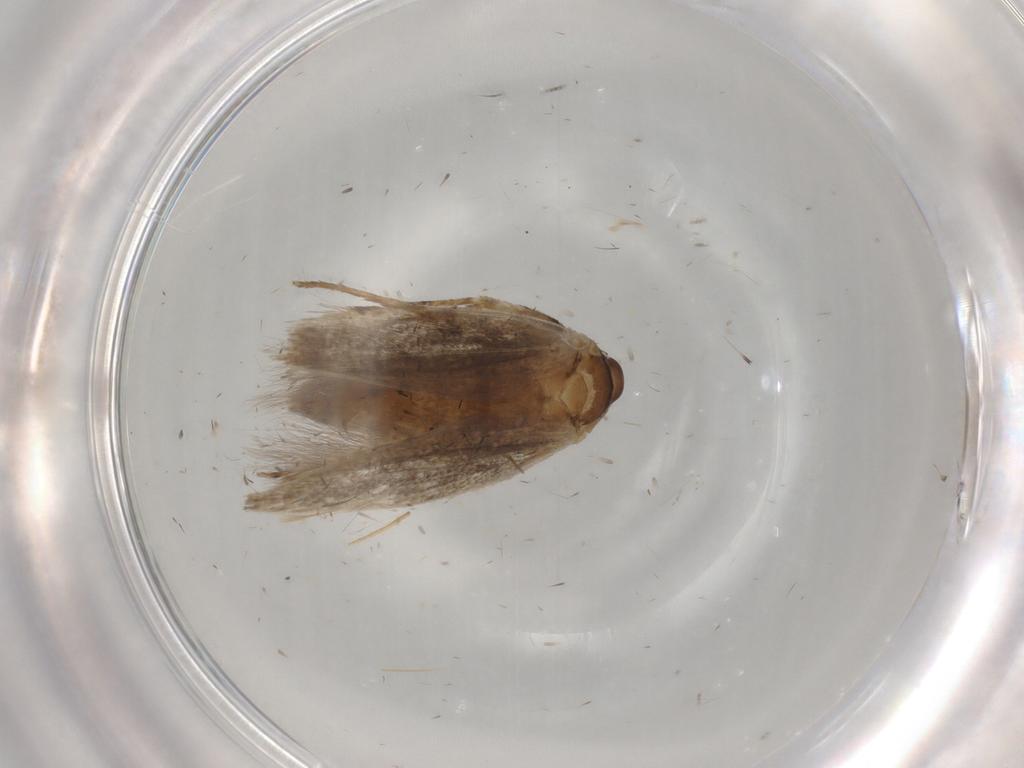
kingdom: Animalia
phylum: Arthropoda
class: Insecta
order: Lepidoptera
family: Cosmopterigidae
